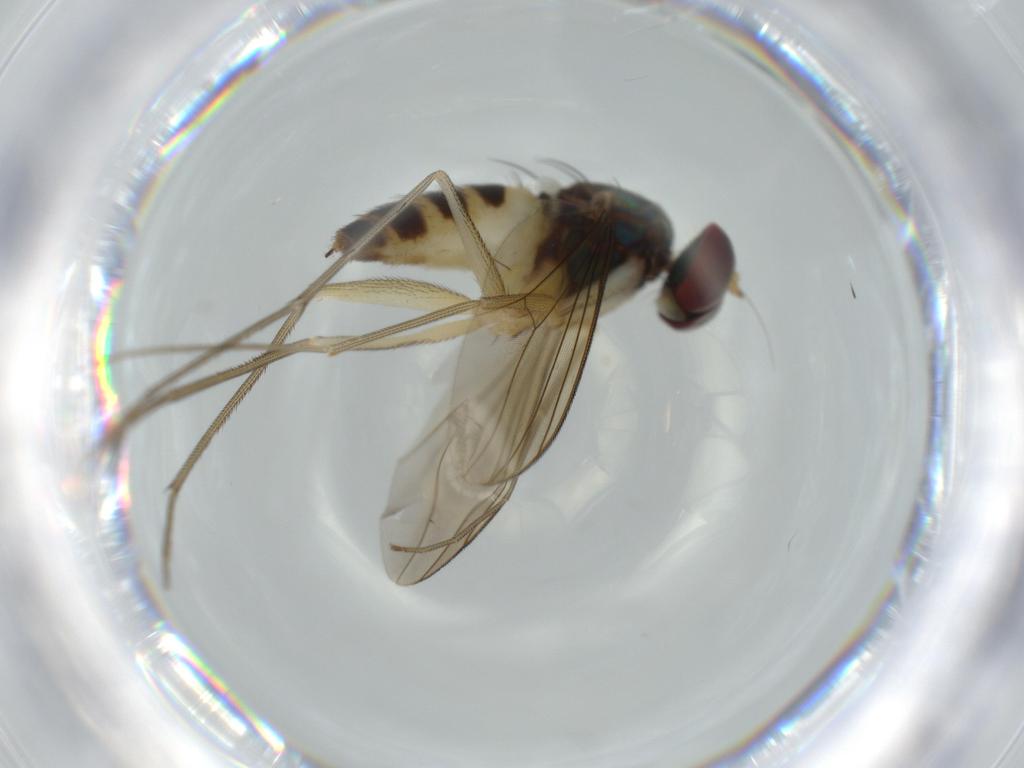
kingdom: Animalia
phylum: Arthropoda
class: Insecta
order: Diptera
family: Dolichopodidae
